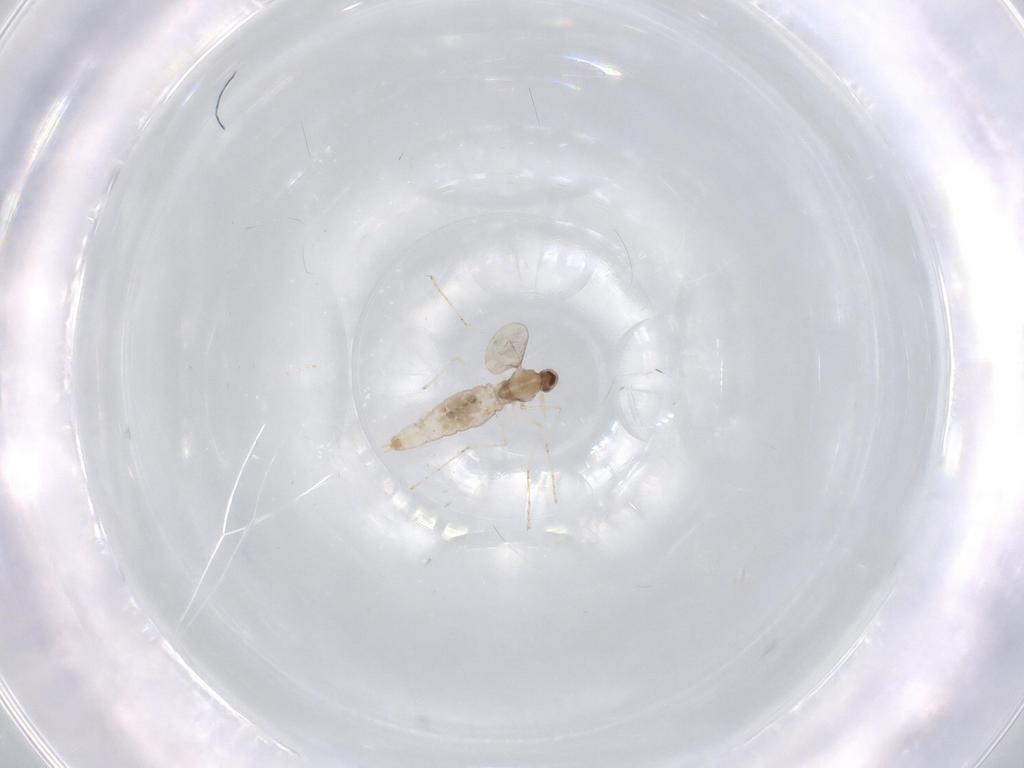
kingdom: Animalia
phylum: Arthropoda
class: Insecta
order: Diptera
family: Cecidomyiidae
